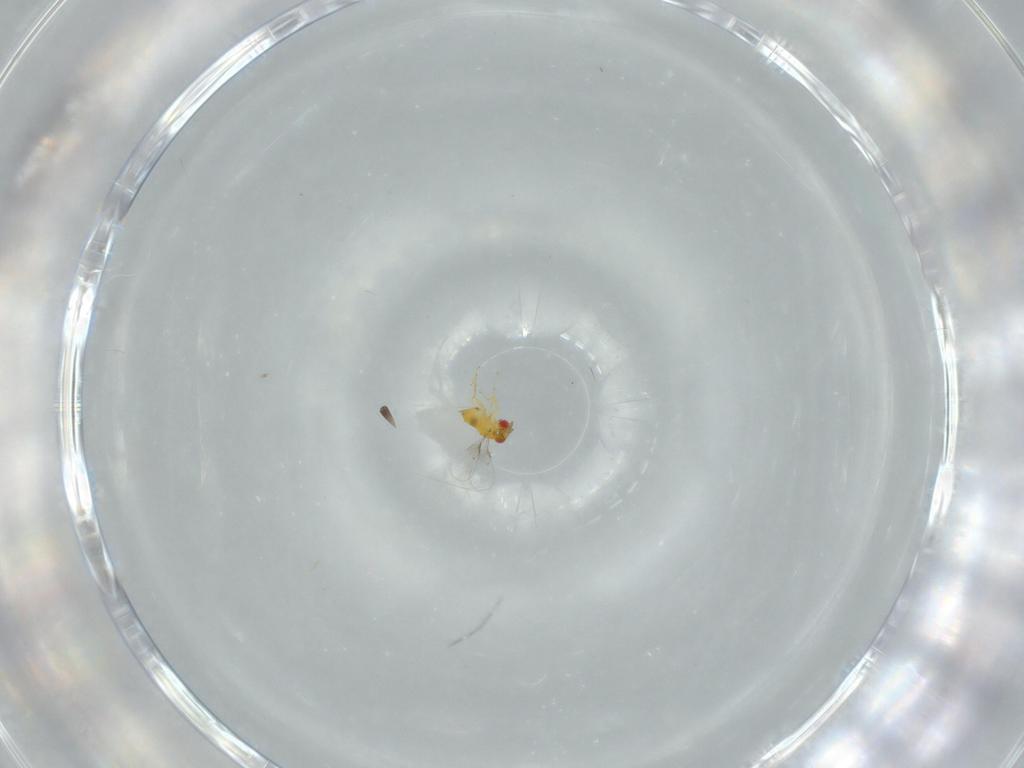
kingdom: Animalia
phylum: Arthropoda
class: Insecta
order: Hymenoptera
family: Trichogrammatidae
